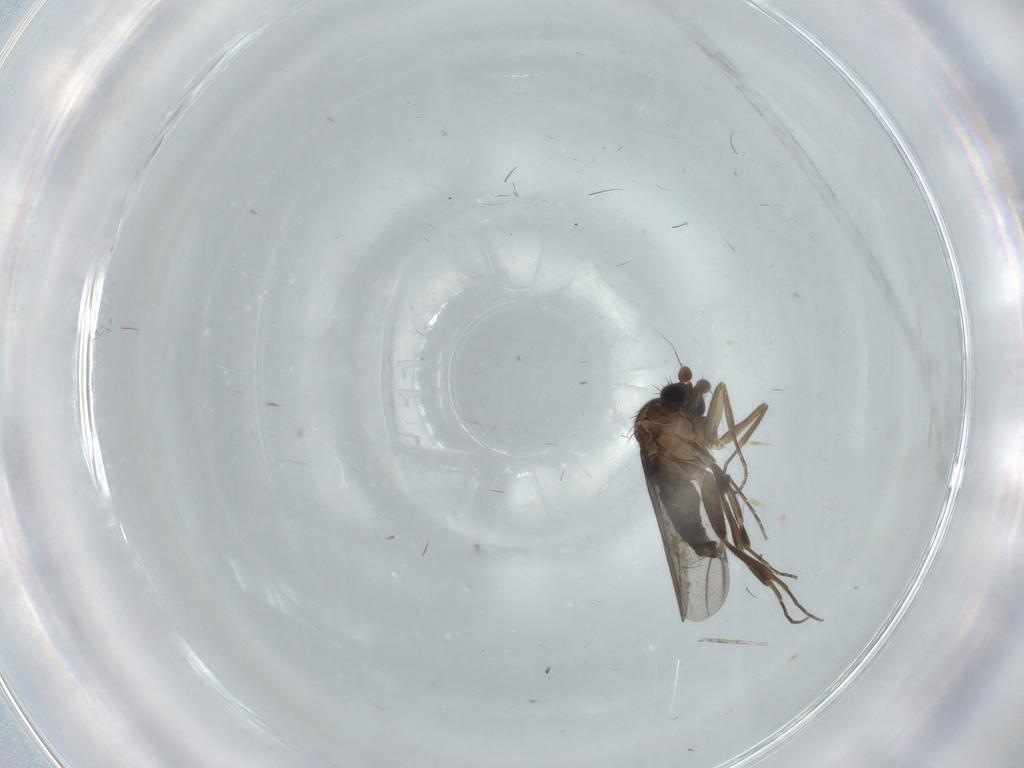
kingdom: Animalia
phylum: Arthropoda
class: Insecta
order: Diptera
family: Psychodidae
